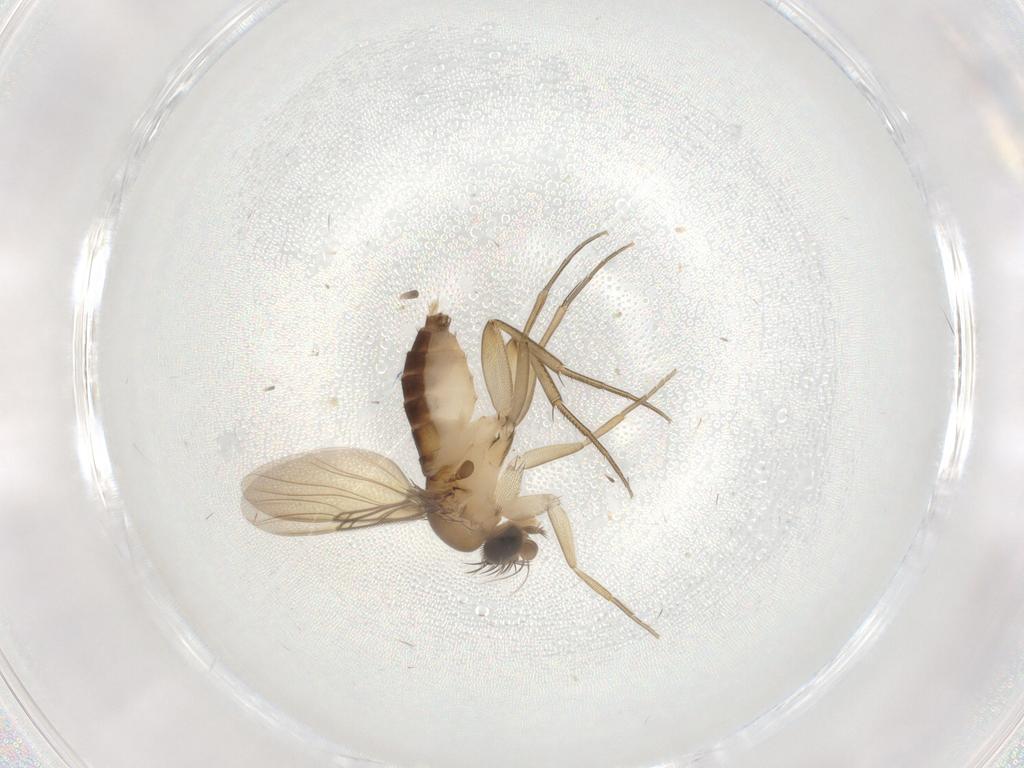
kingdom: Animalia
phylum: Arthropoda
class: Insecta
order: Diptera
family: Phoridae
